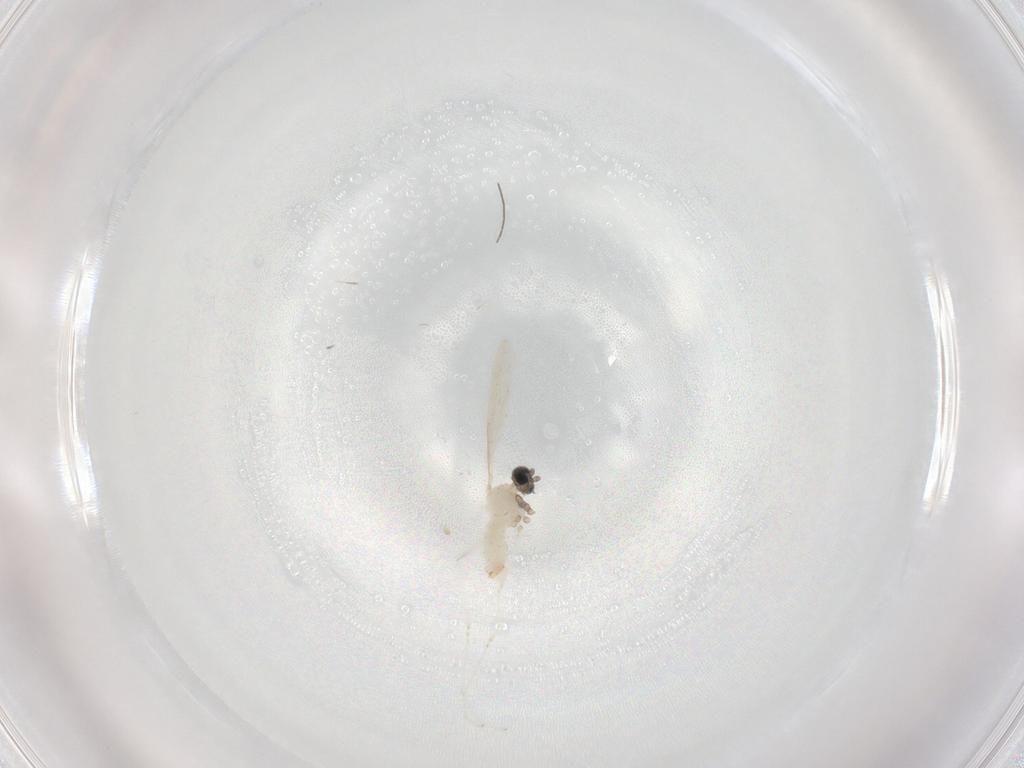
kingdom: Animalia
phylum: Arthropoda
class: Insecta
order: Diptera
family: Cecidomyiidae
